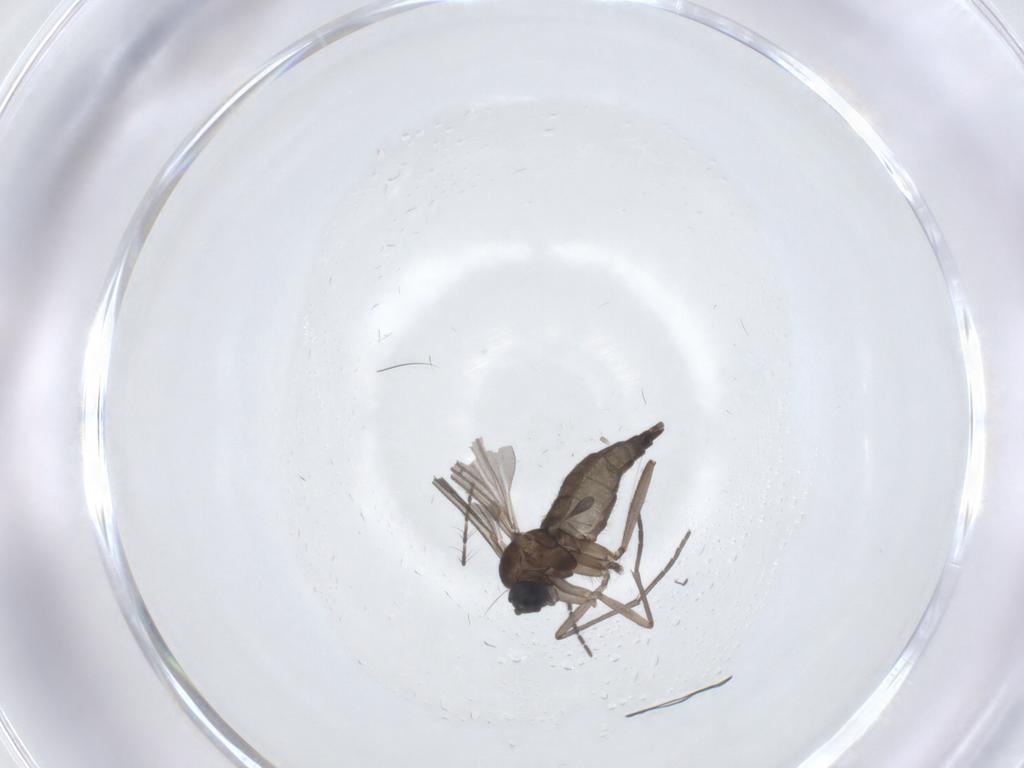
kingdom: Animalia
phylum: Arthropoda
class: Insecta
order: Diptera
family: Sciaridae
